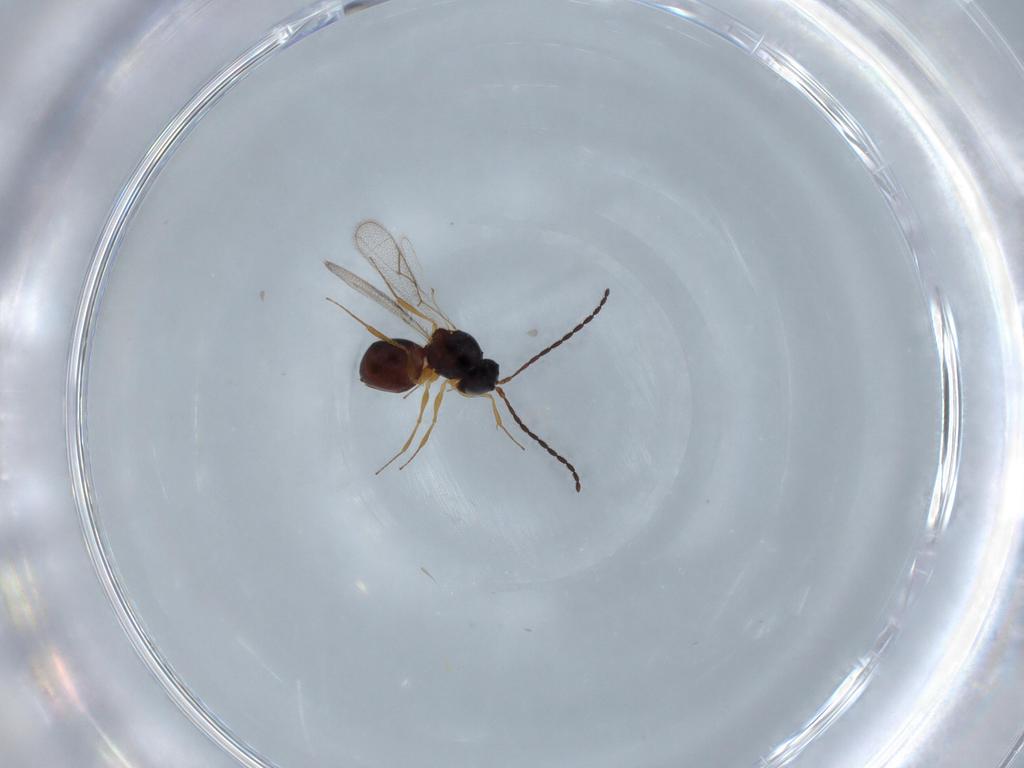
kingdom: Animalia
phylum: Arthropoda
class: Insecta
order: Hymenoptera
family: Figitidae
